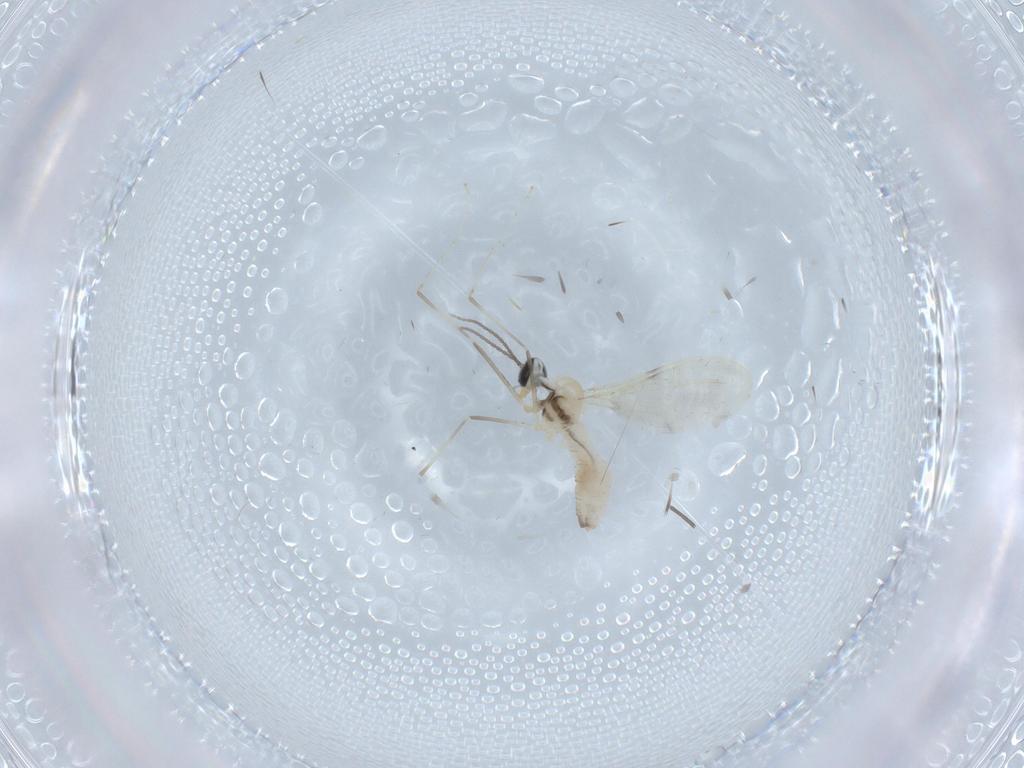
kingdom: Animalia
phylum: Arthropoda
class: Insecta
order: Diptera
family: Cecidomyiidae
